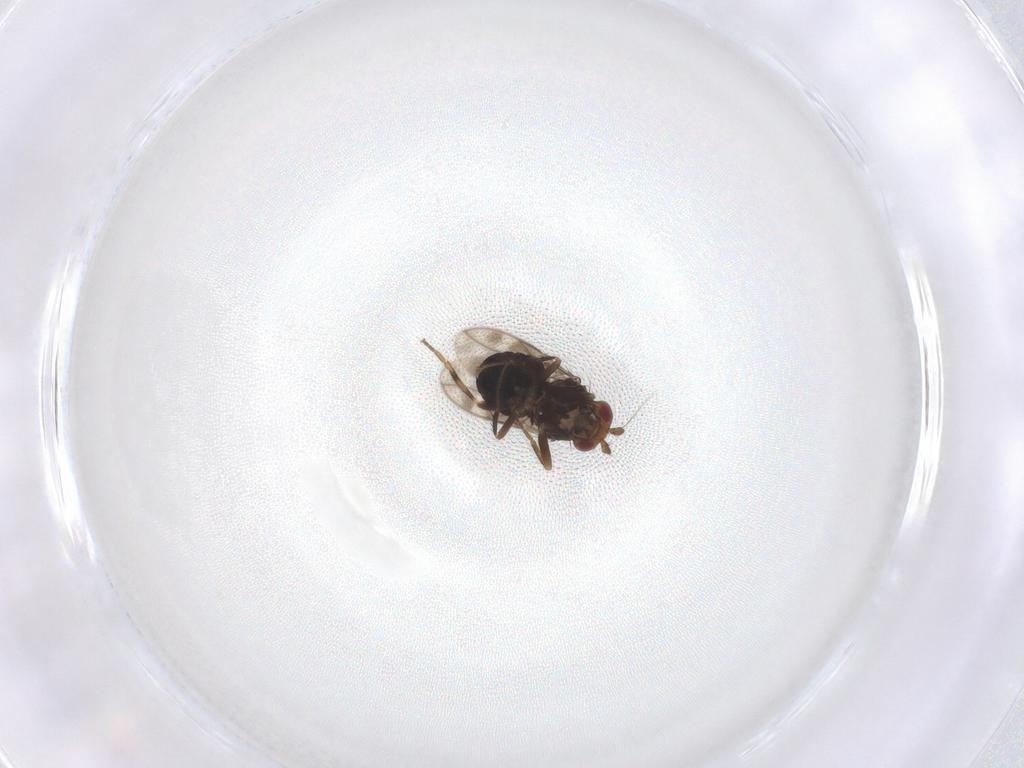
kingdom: Animalia
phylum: Arthropoda
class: Insecta
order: Diptera
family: Sphaeroceridae
